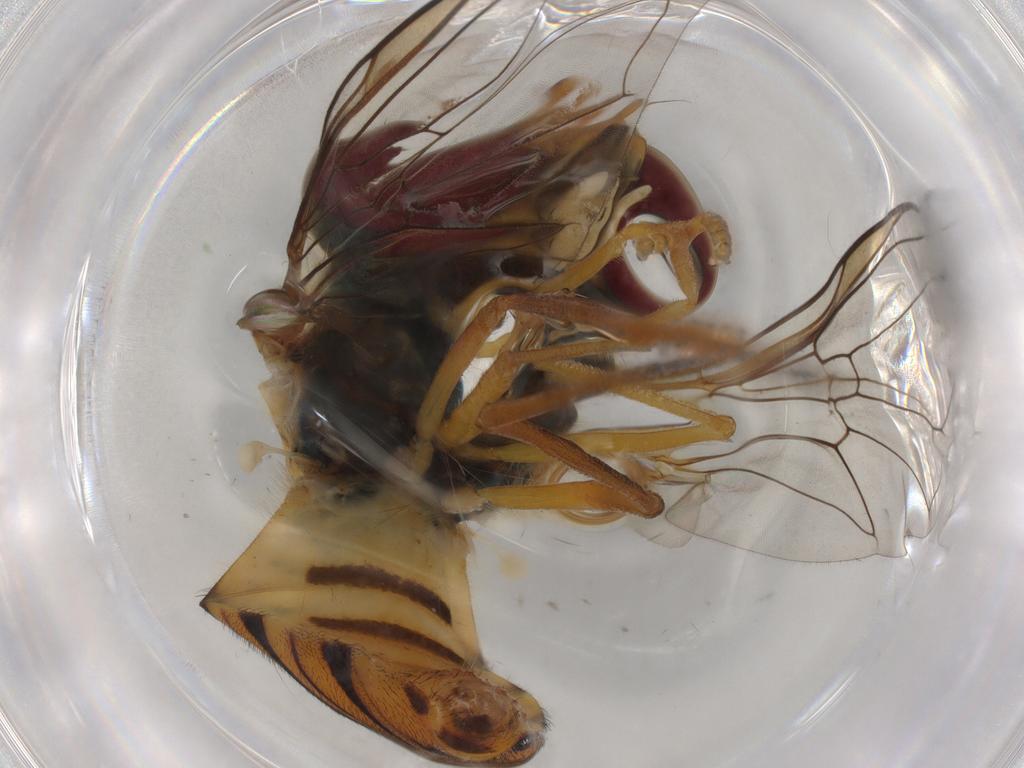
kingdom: Animalia
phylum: Arthropoda
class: Insecta
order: Diptera
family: Syrphidae
